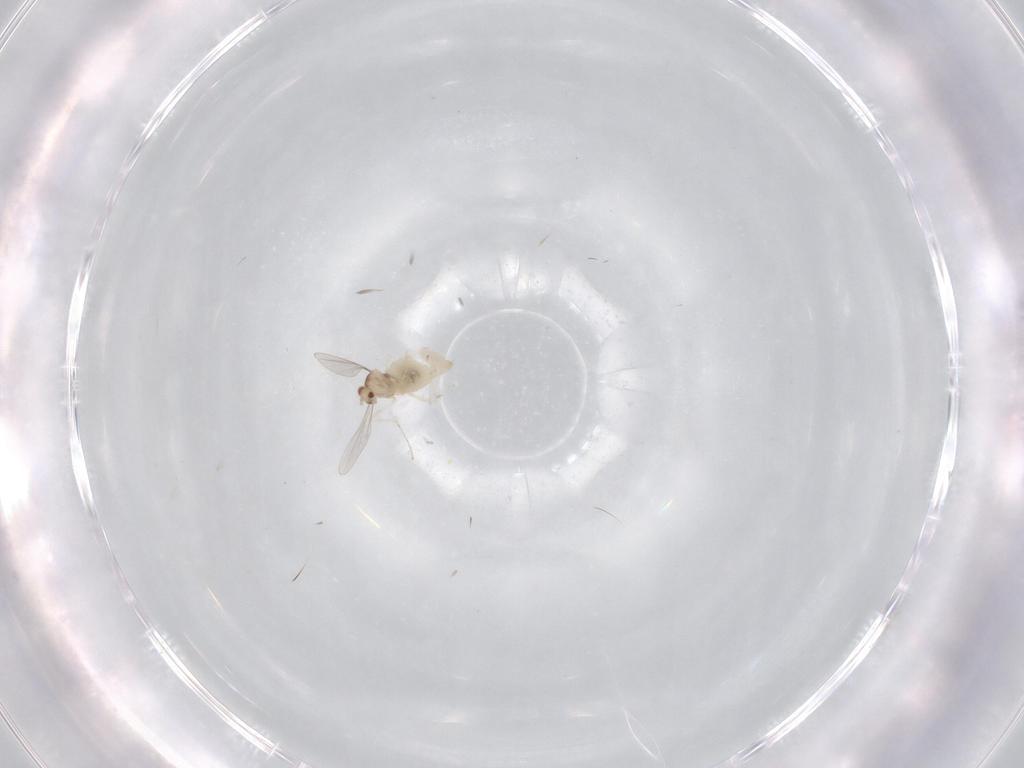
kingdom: Animalia
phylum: Arthropoda
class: Insecta
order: Diptera
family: Cecidomyiidae
